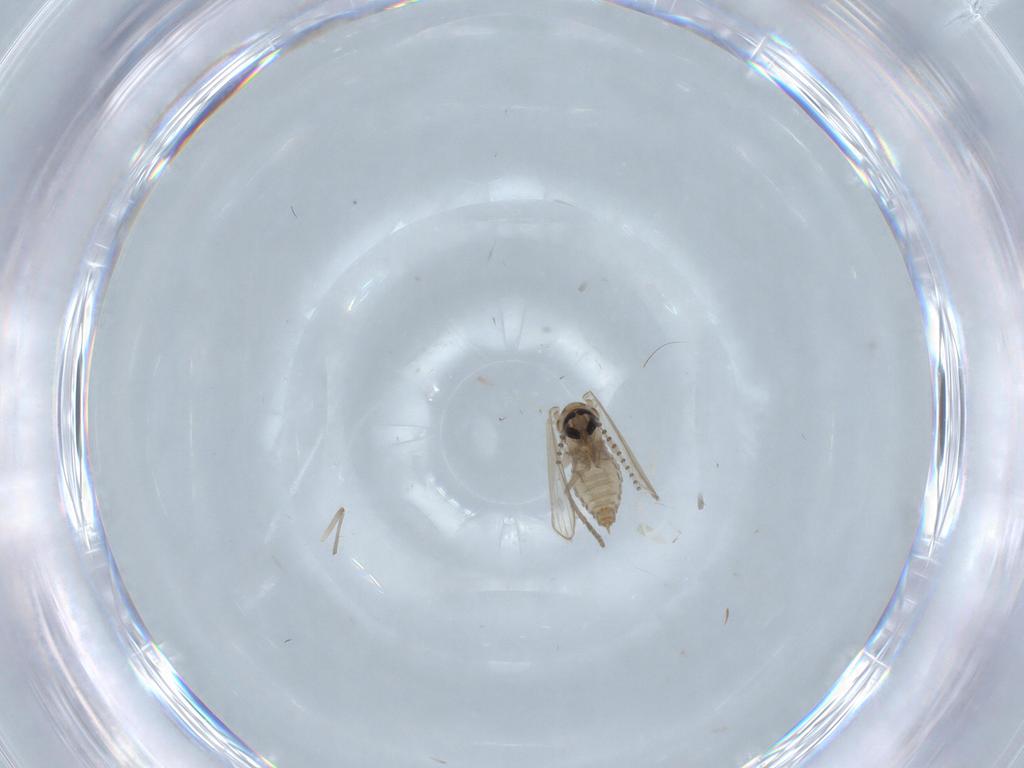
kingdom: Animalia
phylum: Arthropoda
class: Insecta
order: Diptera
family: Psychodidae
